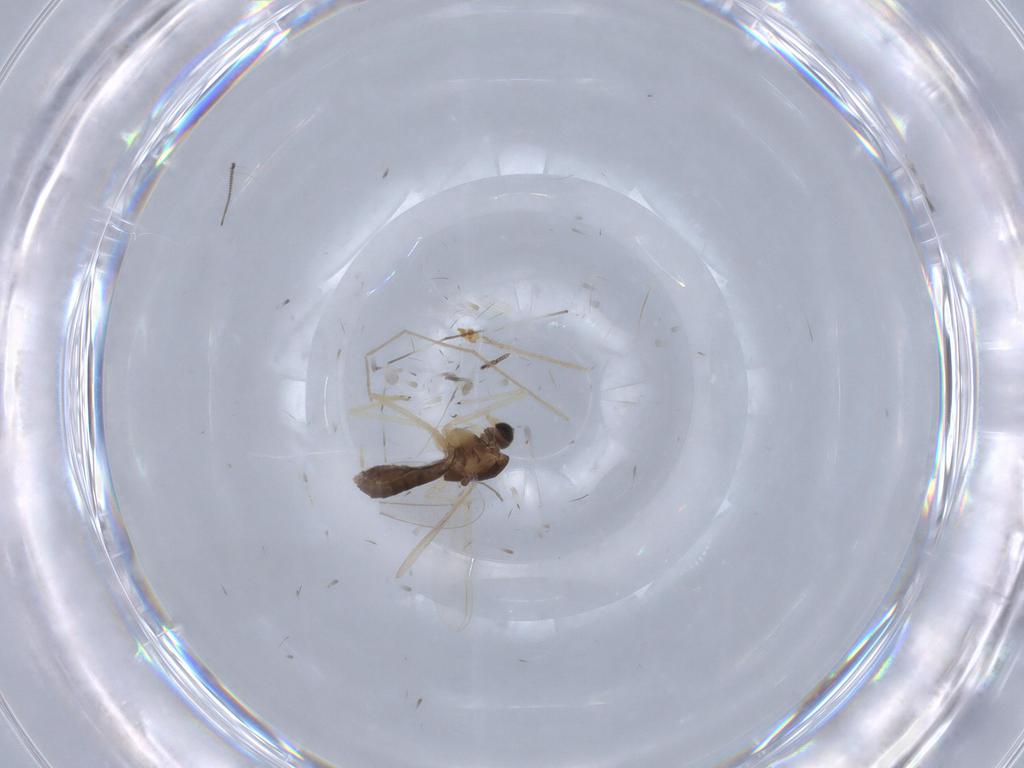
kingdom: Animalia
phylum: Arthropoda
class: Insecta
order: Diptera
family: Chironomidae
